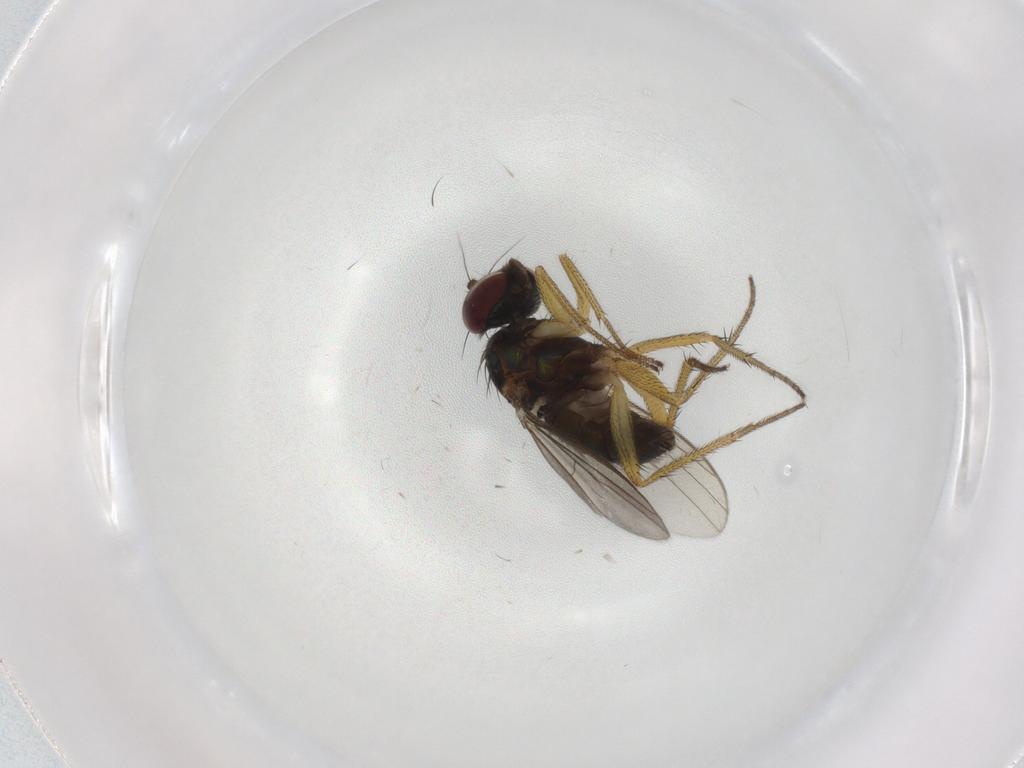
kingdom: Animalia
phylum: Arthropoda
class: Insecta
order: Diptera
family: Dolichopodidae
